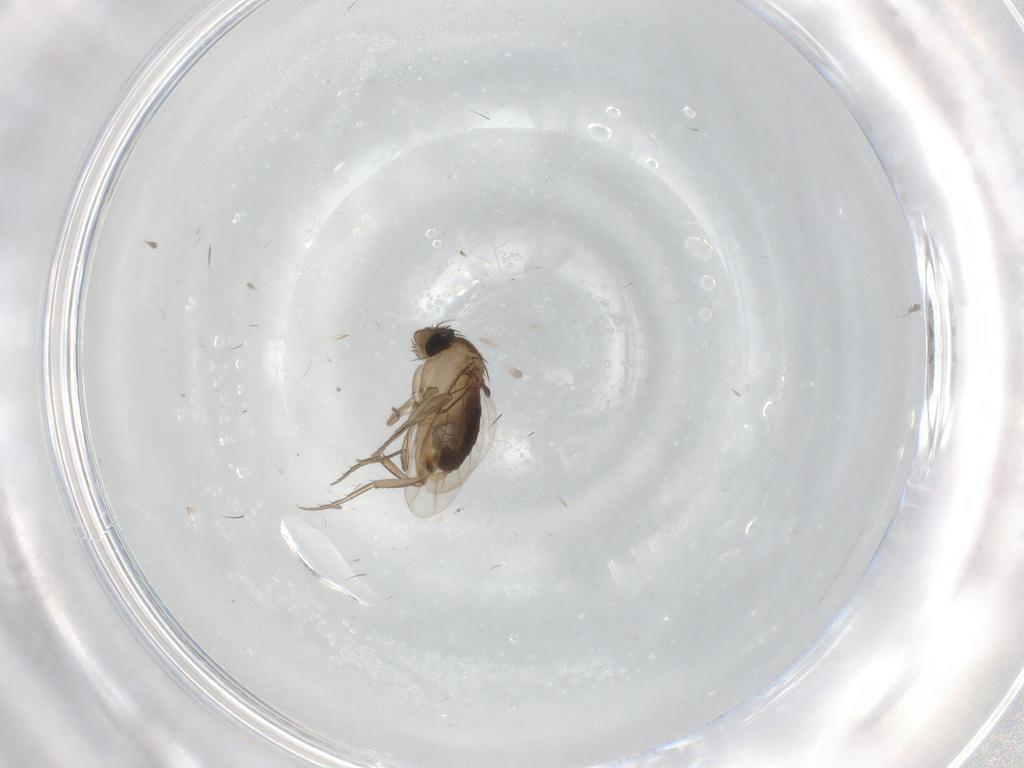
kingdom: Animalia
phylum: Arthropoda
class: Insecta
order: Diptera
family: Phoridae
